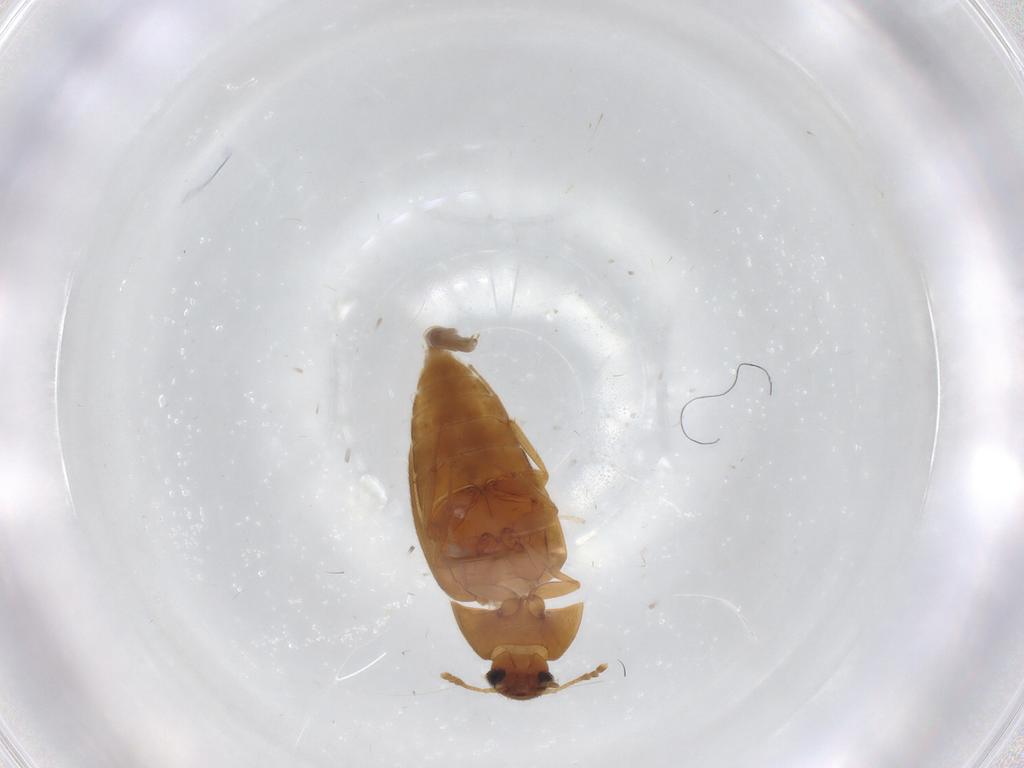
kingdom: Animalia
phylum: Arthropoda
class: Insecta
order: Coleoptera
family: Mycetophagidae
